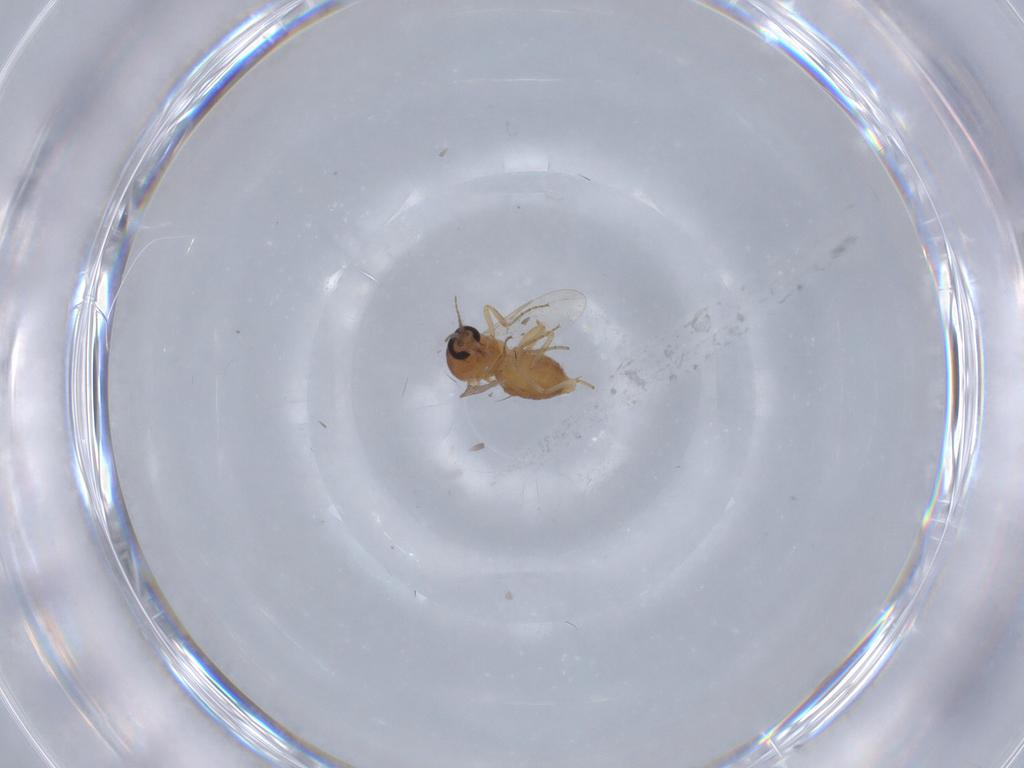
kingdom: Animalia
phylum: Arthropoda
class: Insecta
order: Diptera
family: Ceratopogonidae
